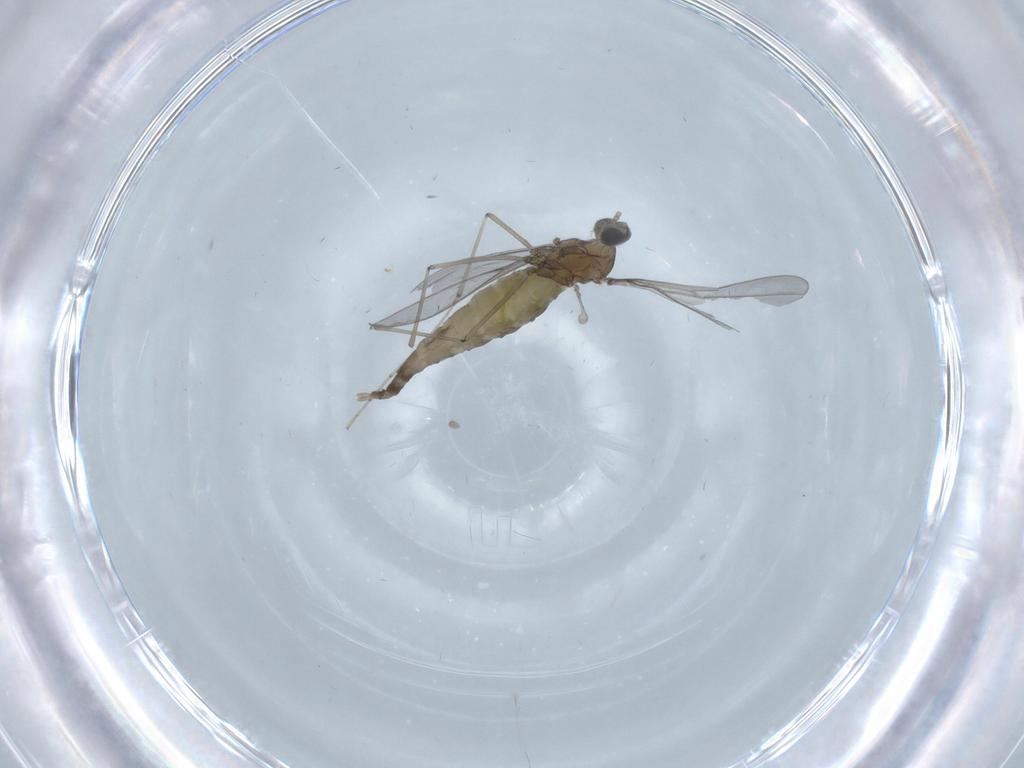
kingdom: Animalia
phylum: Arthropoda
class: Insecta
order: Diptera
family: Cecidomyiidae
